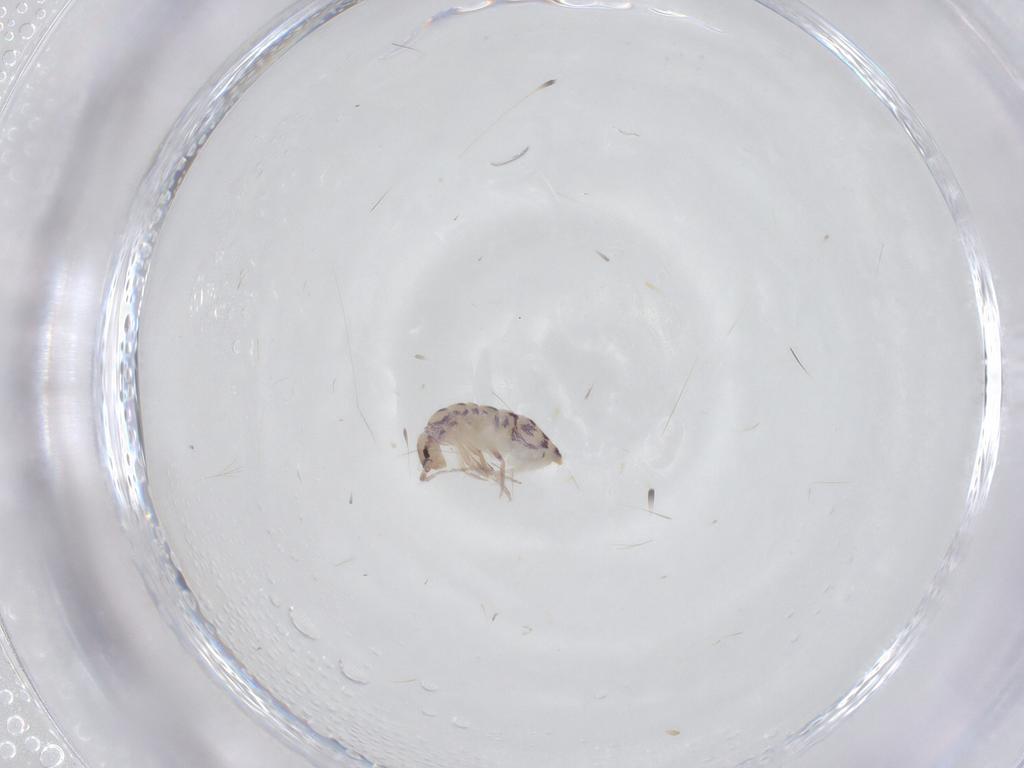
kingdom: Animalia
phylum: Arthropoda
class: Collembola
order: Entomobryomorpha
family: Entomobryidae
